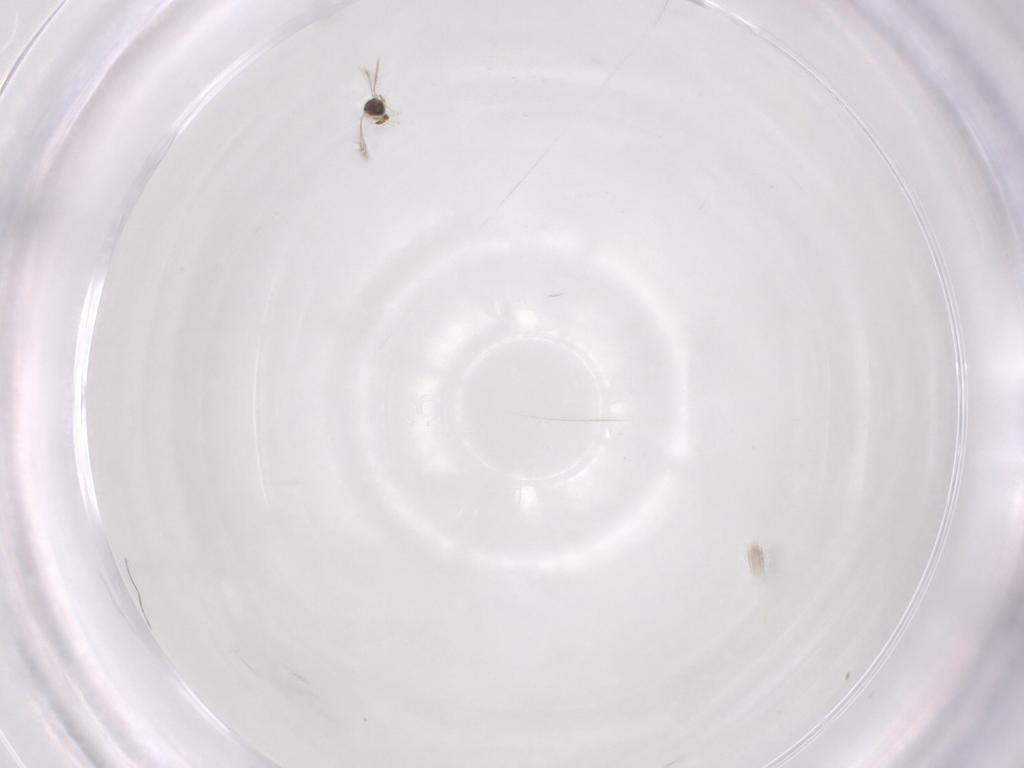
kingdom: Animalia
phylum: Arthropoda
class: Insecta
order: Hymenoptera
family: Mymaridae
